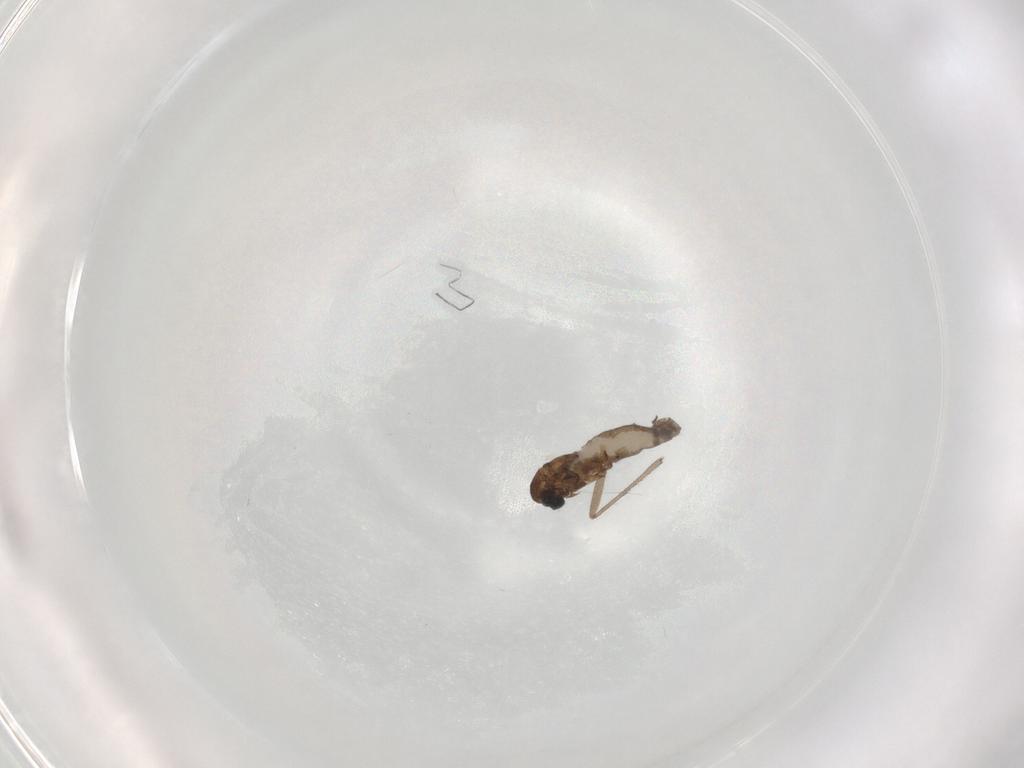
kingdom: Animalia
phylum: Arthropoda
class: Insecta
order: Diptera
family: Sciaridae
